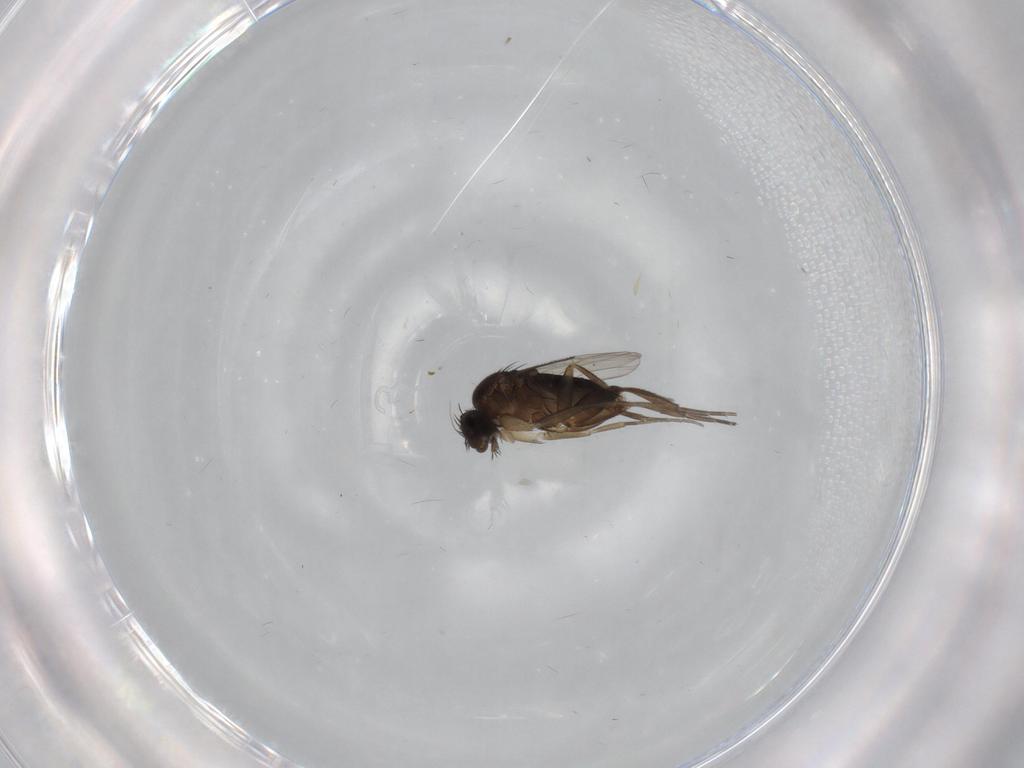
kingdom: Animalia
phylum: Arthropoda
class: Insecta
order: Diptera
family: Phoridae
